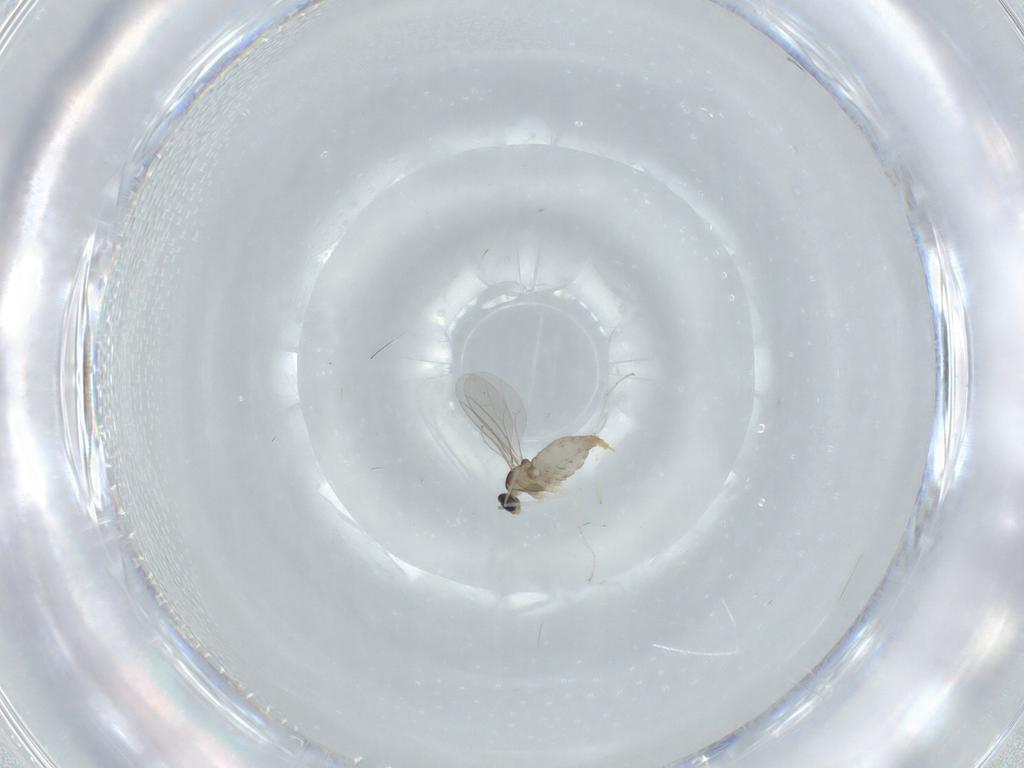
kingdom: Animalia
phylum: Arthropoda
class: Insecta
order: Diptera
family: Cecidomyiidae
